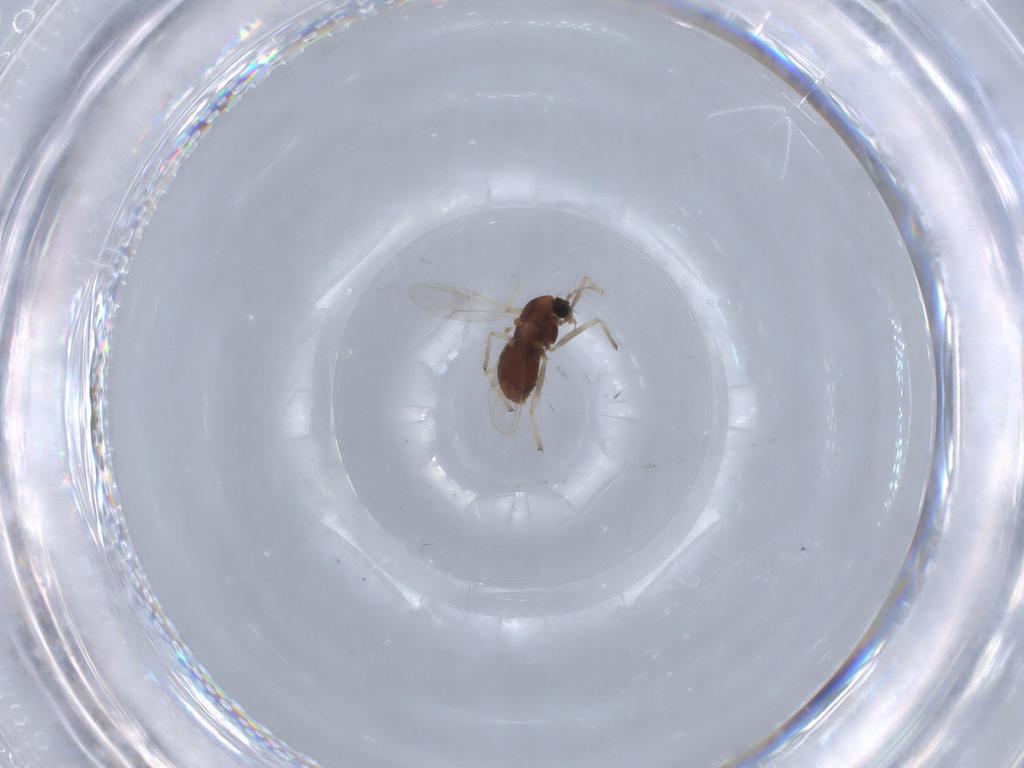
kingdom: Animalia
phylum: Arthropoda
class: Insecta
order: Diptera
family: Chironomidae
